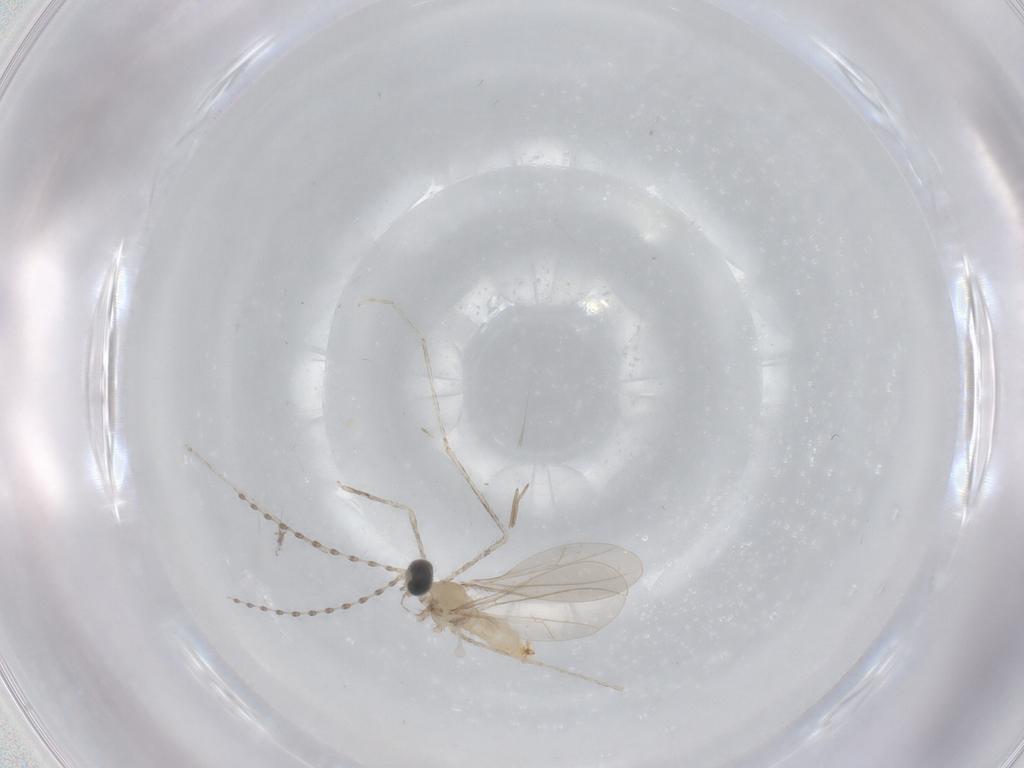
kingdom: Animalia
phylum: Arthropoda
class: Insecta
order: Diptera
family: Cecidomyiidae
